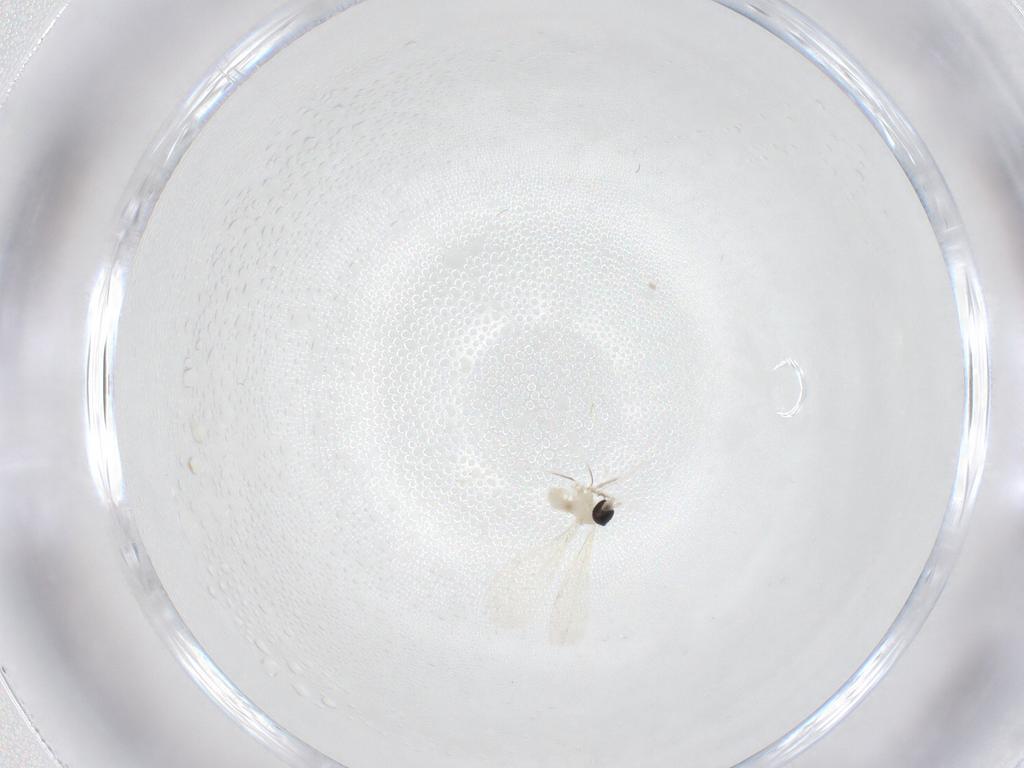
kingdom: Animalia
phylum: Arthropoda
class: Insecta
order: Diptera
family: Cecidomyiidae
